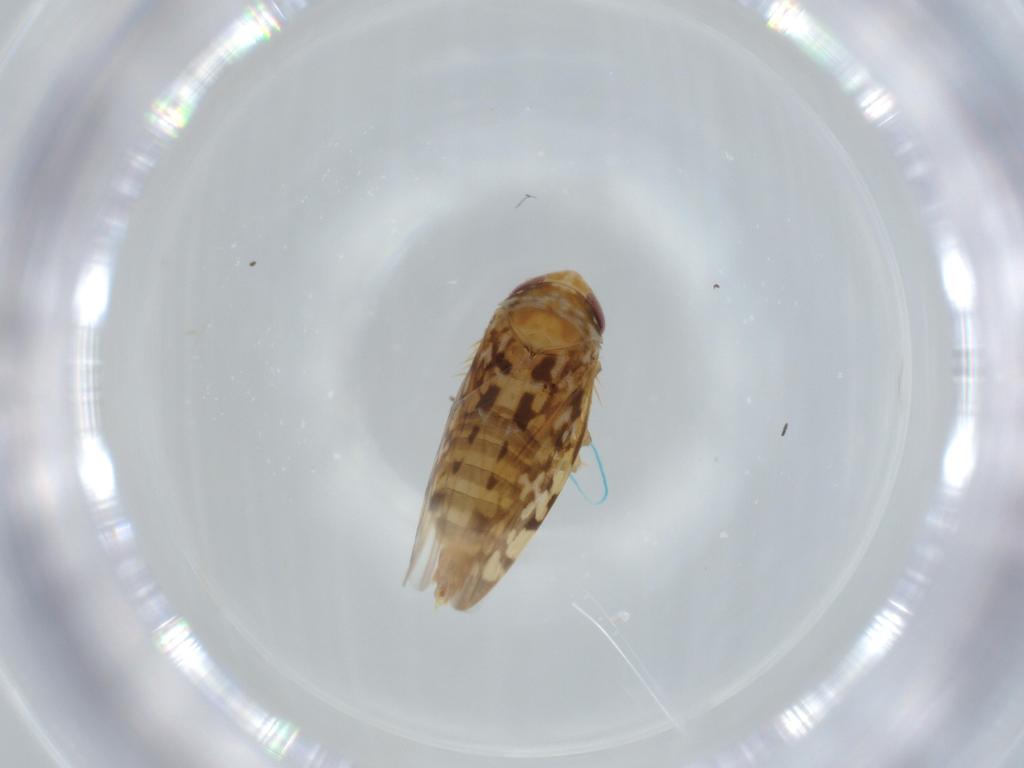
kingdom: Animalia
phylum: Arthropoda
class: Insecta
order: Hemiptera
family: Cicadellidae
